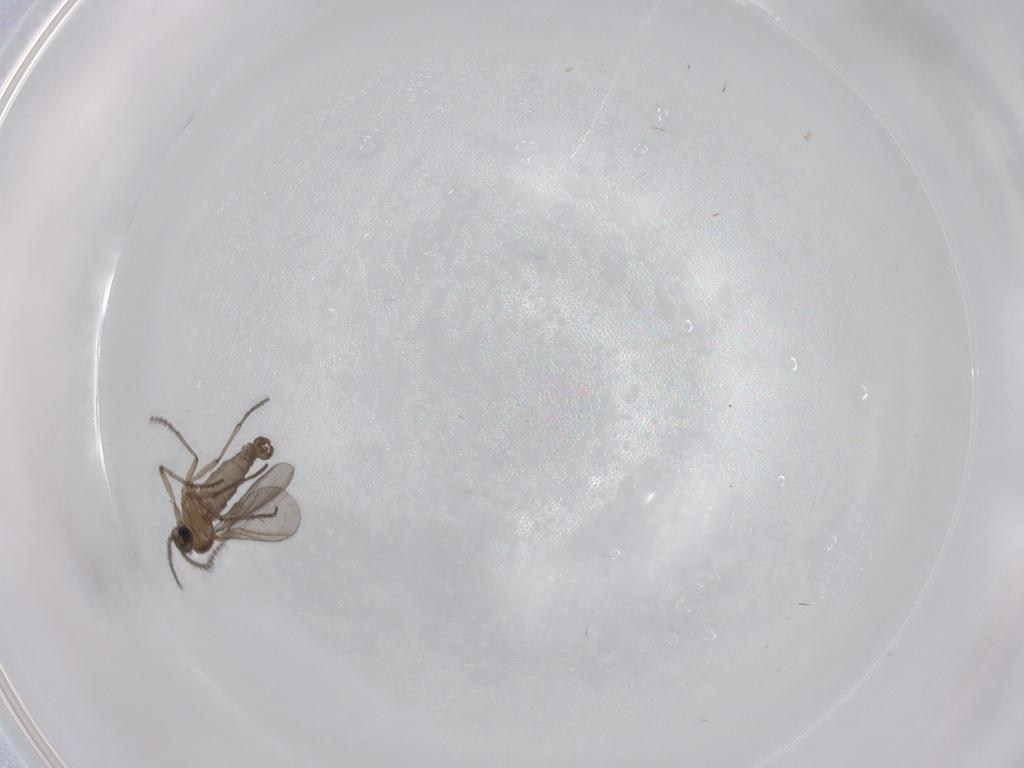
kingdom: Animalia
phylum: Arthropoda
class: Insecta
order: Diptera
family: Sciaridae
